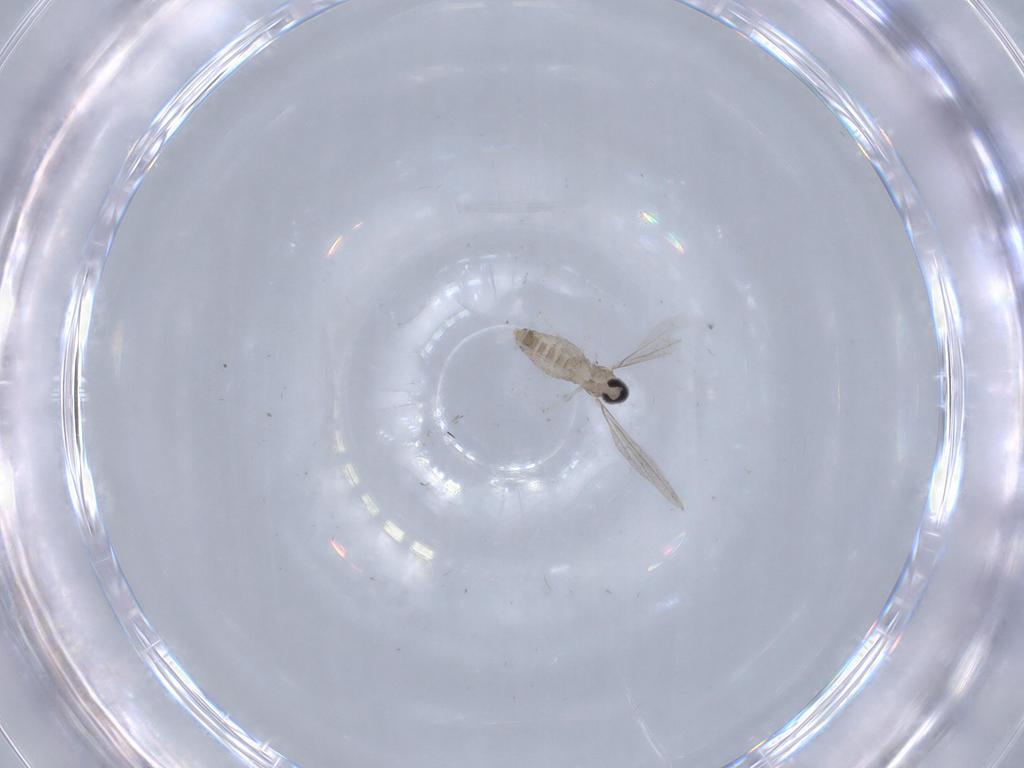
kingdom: Animalia
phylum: Arthropoda
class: Insecta
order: Diptera
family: Cecidomyiidae
